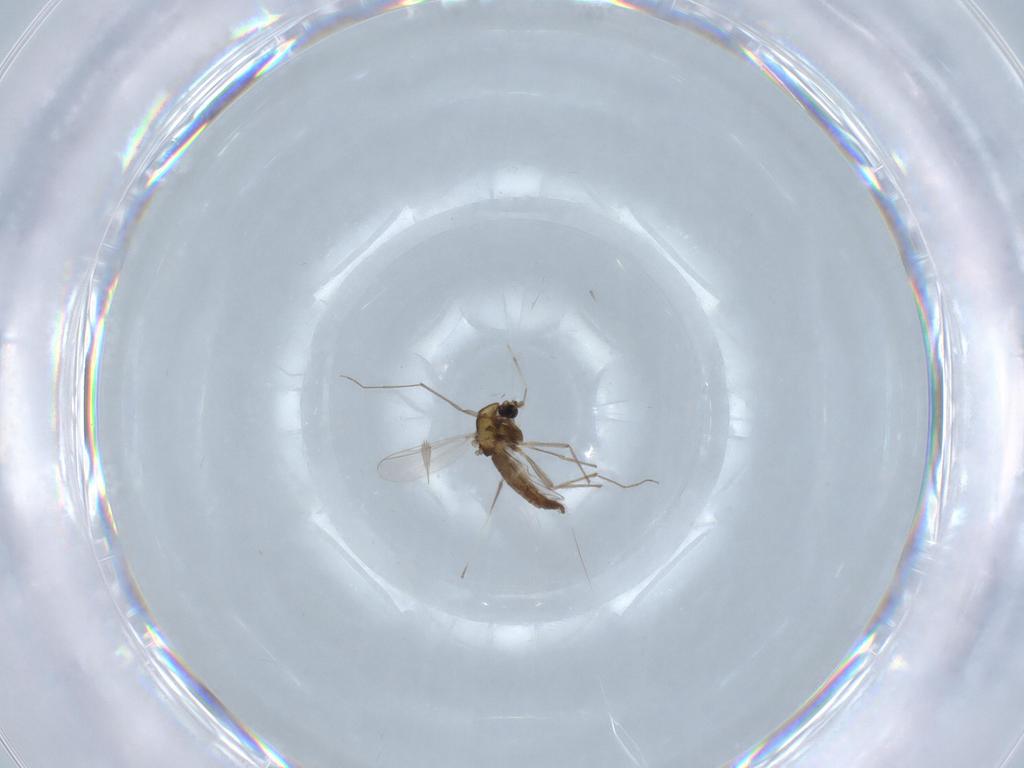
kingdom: Animalia
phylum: Arthropoda
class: Insecta
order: Diptera
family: Chironomidae
